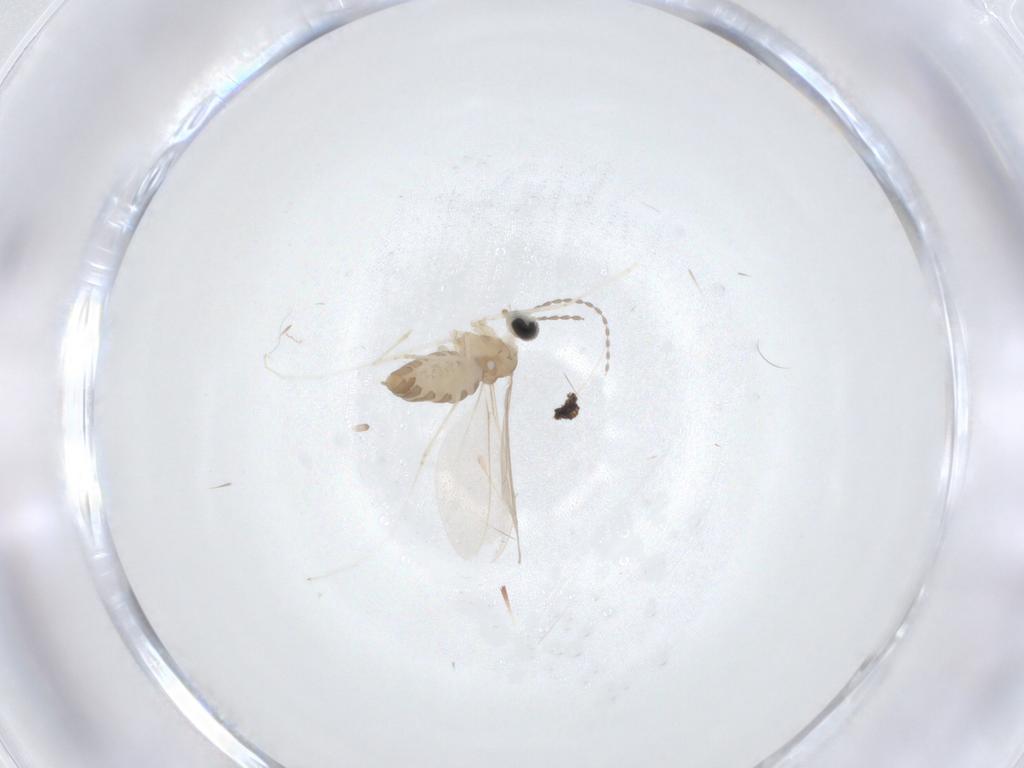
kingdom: Animalia
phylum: Arthropoda
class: Insecta
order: Diptera
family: Cecidomyiidae
